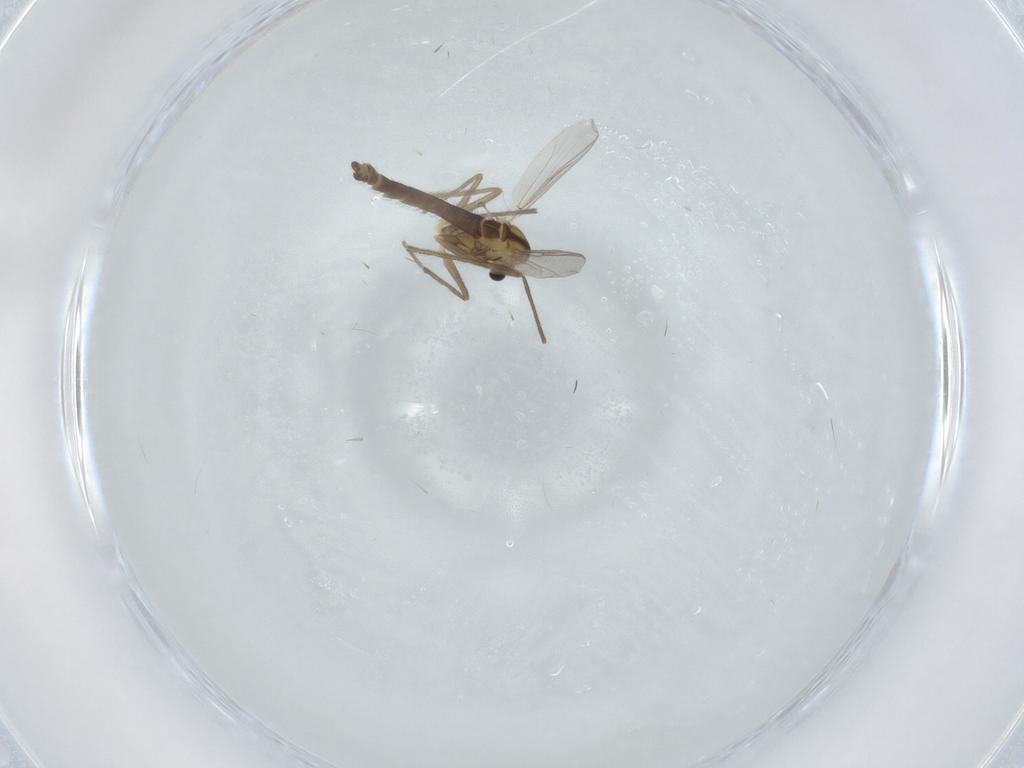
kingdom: Animalia
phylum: Arthropoda
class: Insecta
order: Diptera
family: Chironomidae
